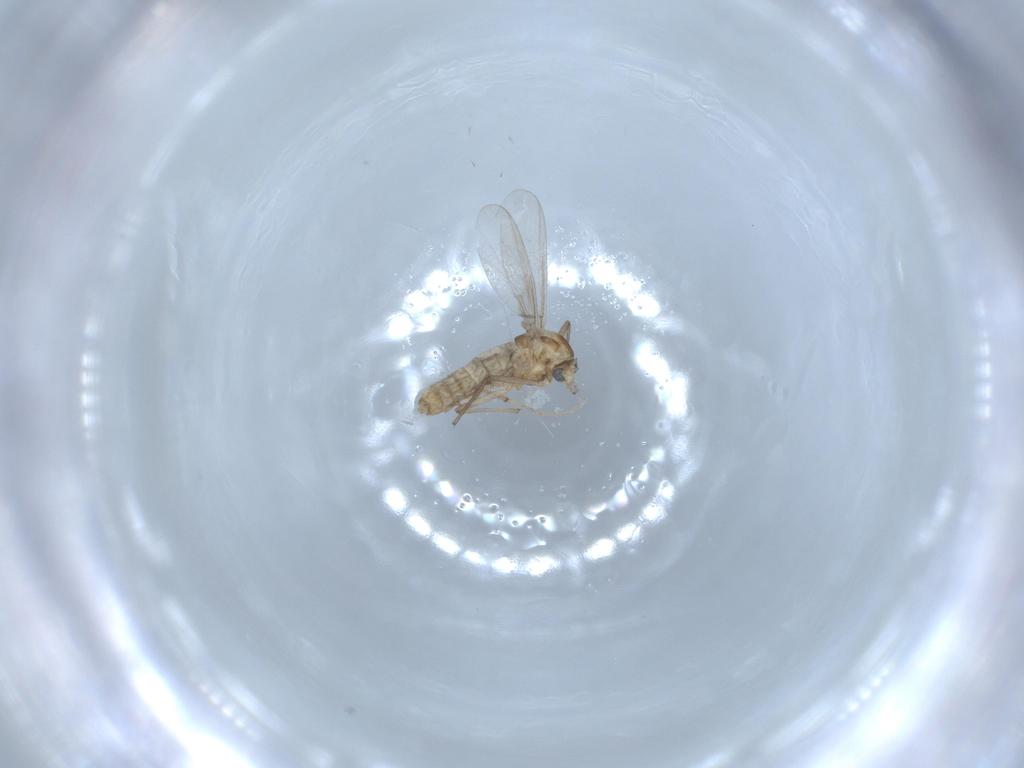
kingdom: Animalia
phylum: Arthropoda
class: Insecta
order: Diptera
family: Chironomidae
